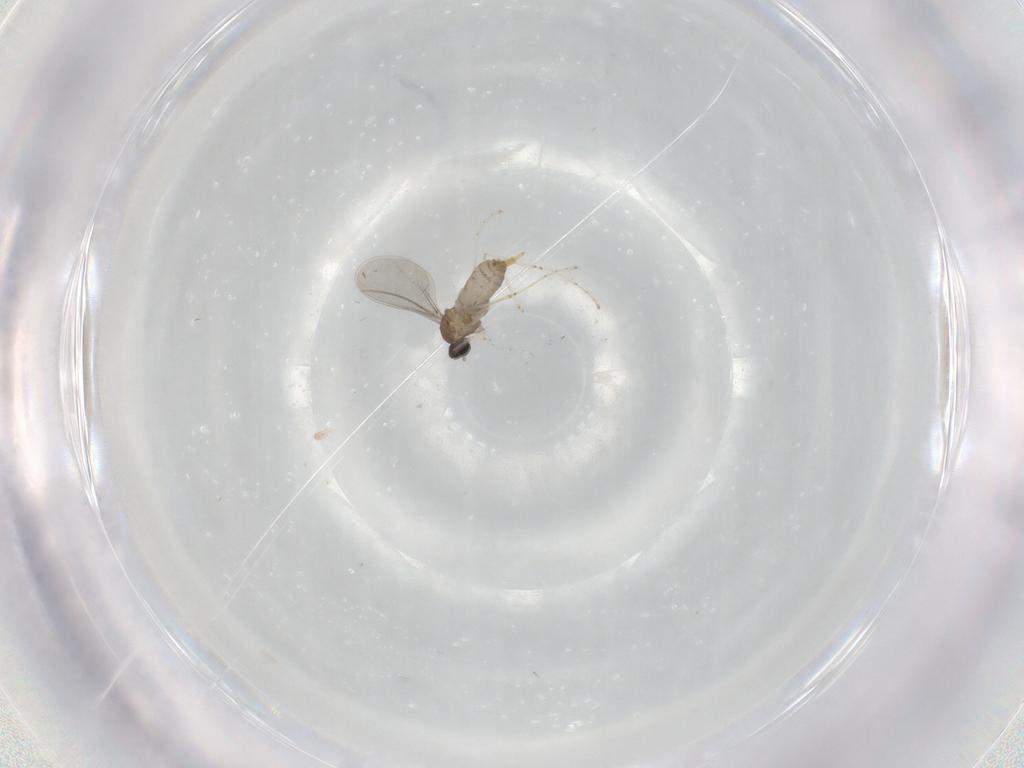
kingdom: Animalia
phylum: Arthropoda
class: Insecta
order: Diptera
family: Cecidomyiidae
